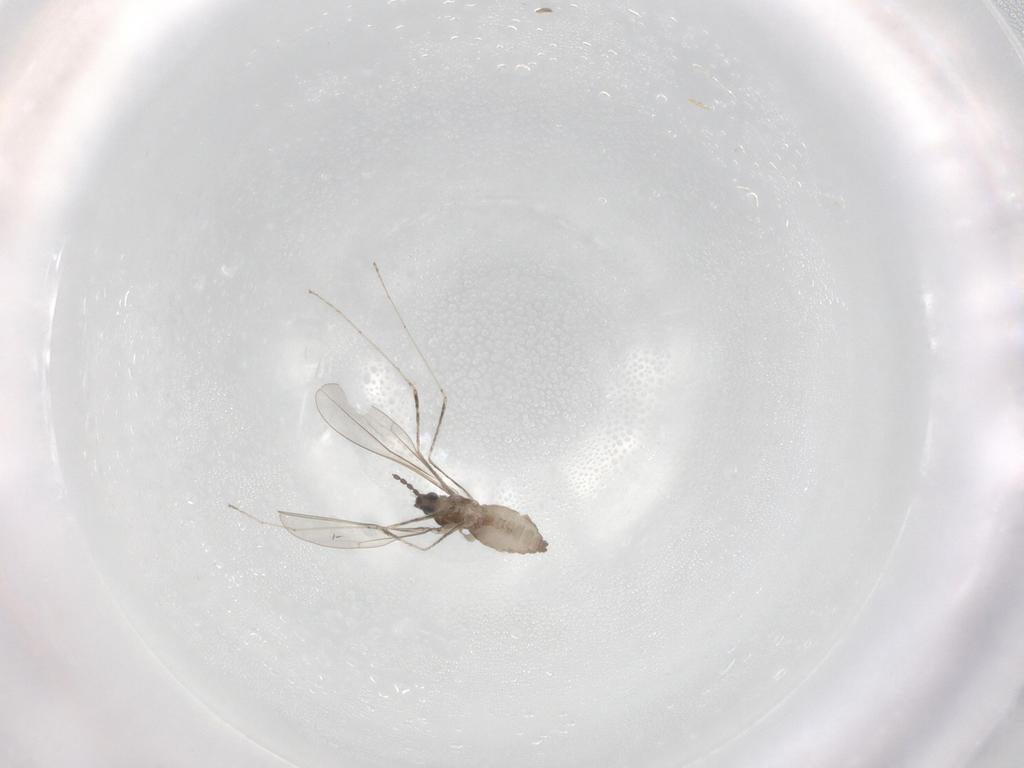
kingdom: Animalia
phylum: Arthropoda
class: Insecta
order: Diptera
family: Cecidomyiidae
